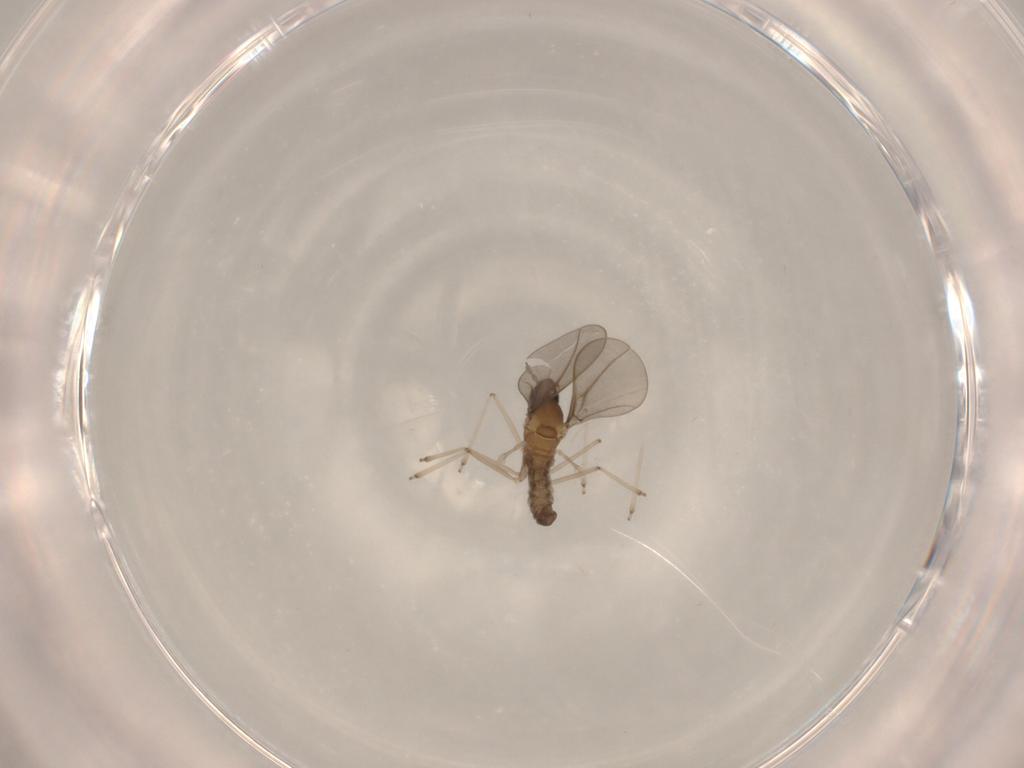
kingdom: Animalia
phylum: Arthropoda
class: Insecta
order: Diptera
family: Cecidomyiidae
